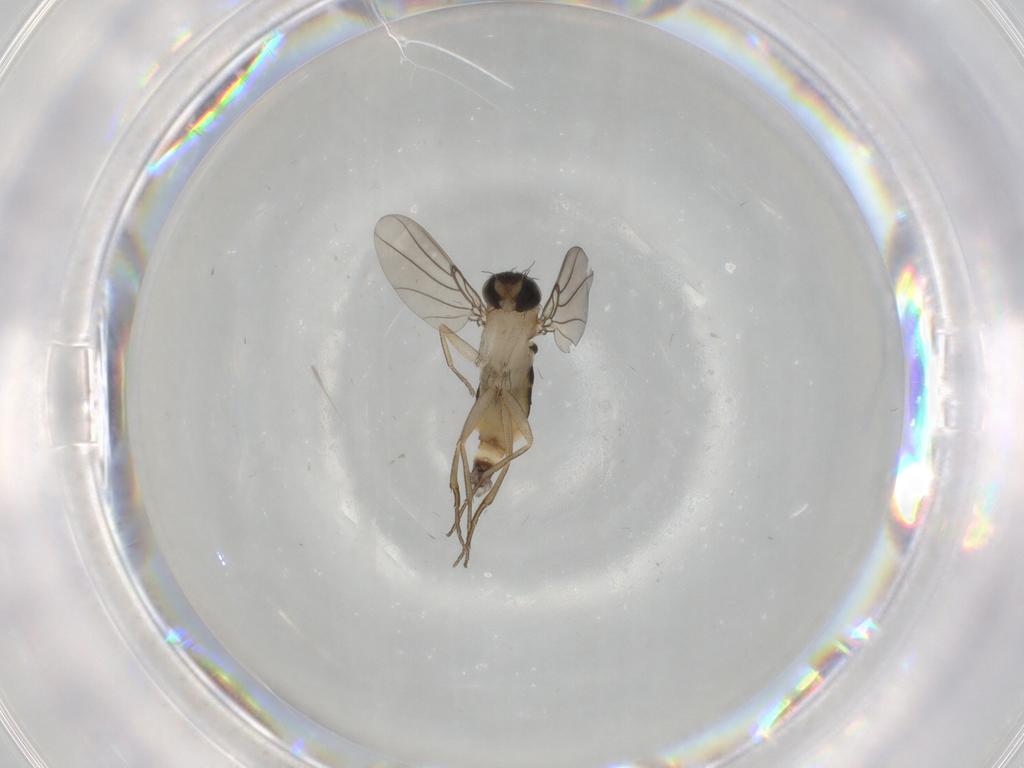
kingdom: Animalia
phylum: Arthropoda
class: Insecta
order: Diptera
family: Phoridae
